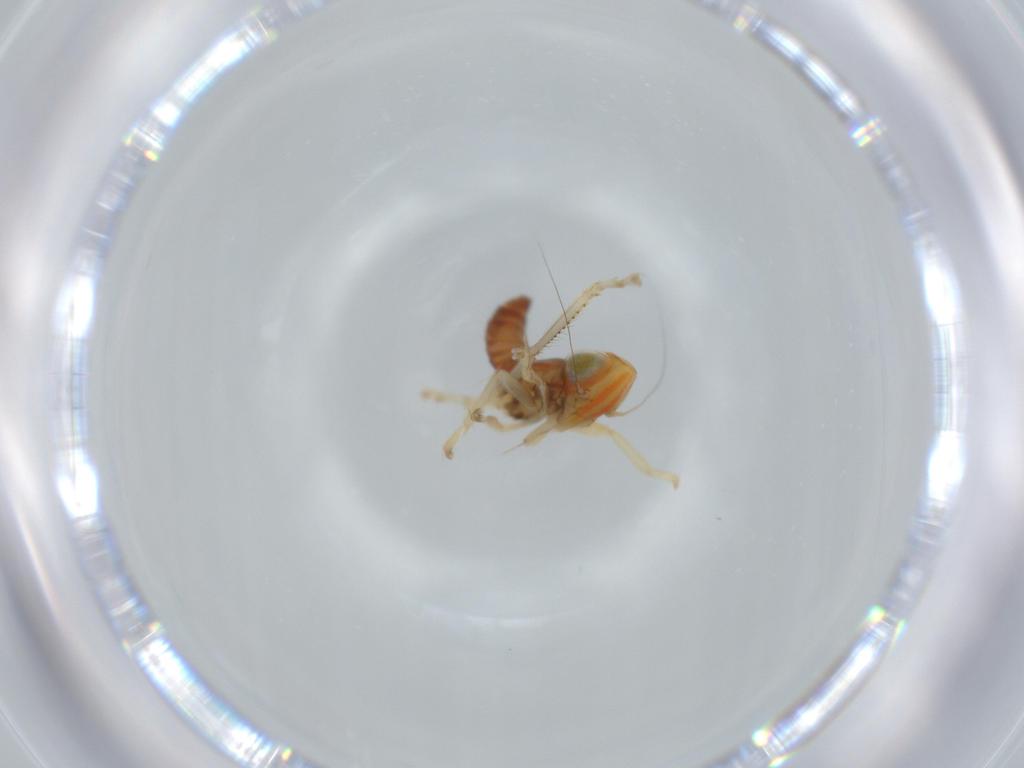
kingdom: Animalia
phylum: Arthropoda
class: Insecta
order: Hemiptera
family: Cicadellidae
